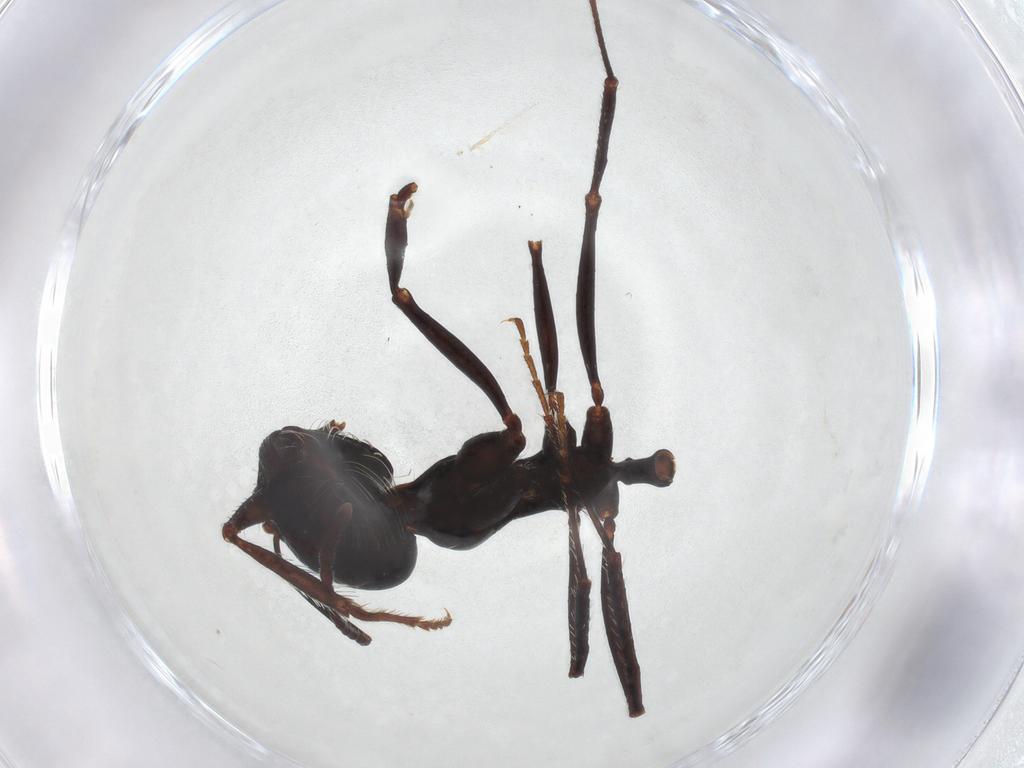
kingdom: Animalia
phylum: Arthropoda
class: Insecta
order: Hymenoptera
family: Formicidae
